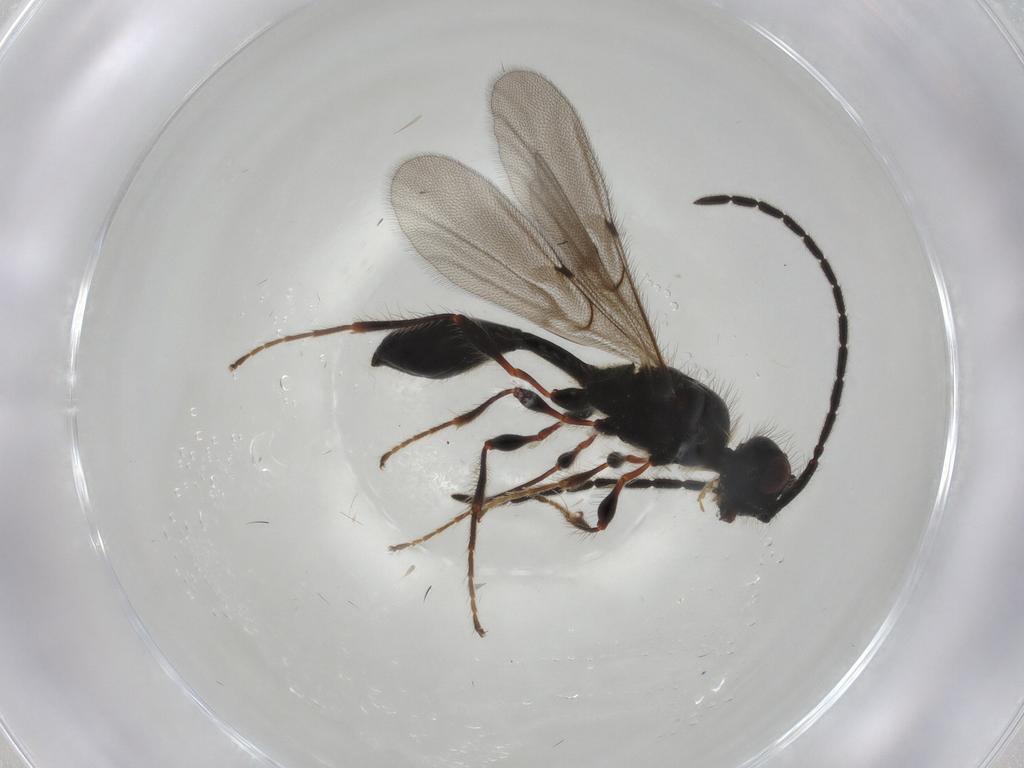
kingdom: Animalia
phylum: Arthropoda
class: Insecta
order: Hymenoptera
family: Diapriidae
